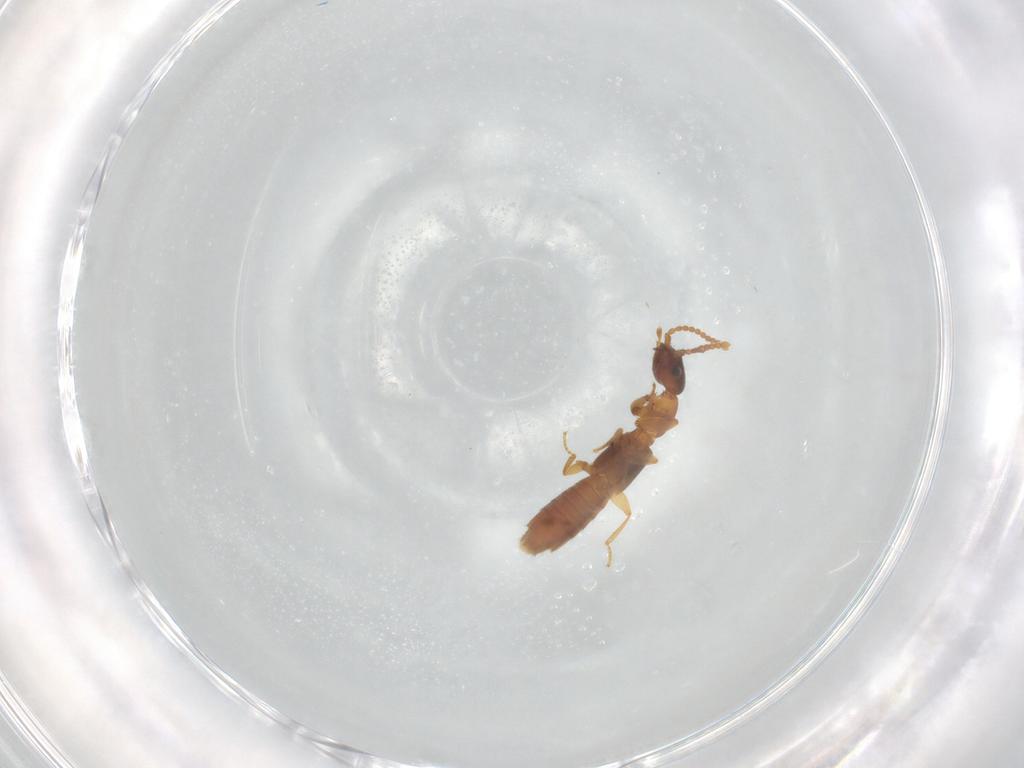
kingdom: Animalia
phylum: Arthropoda
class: Insecta
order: Coleoptera
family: Staphylinidae
